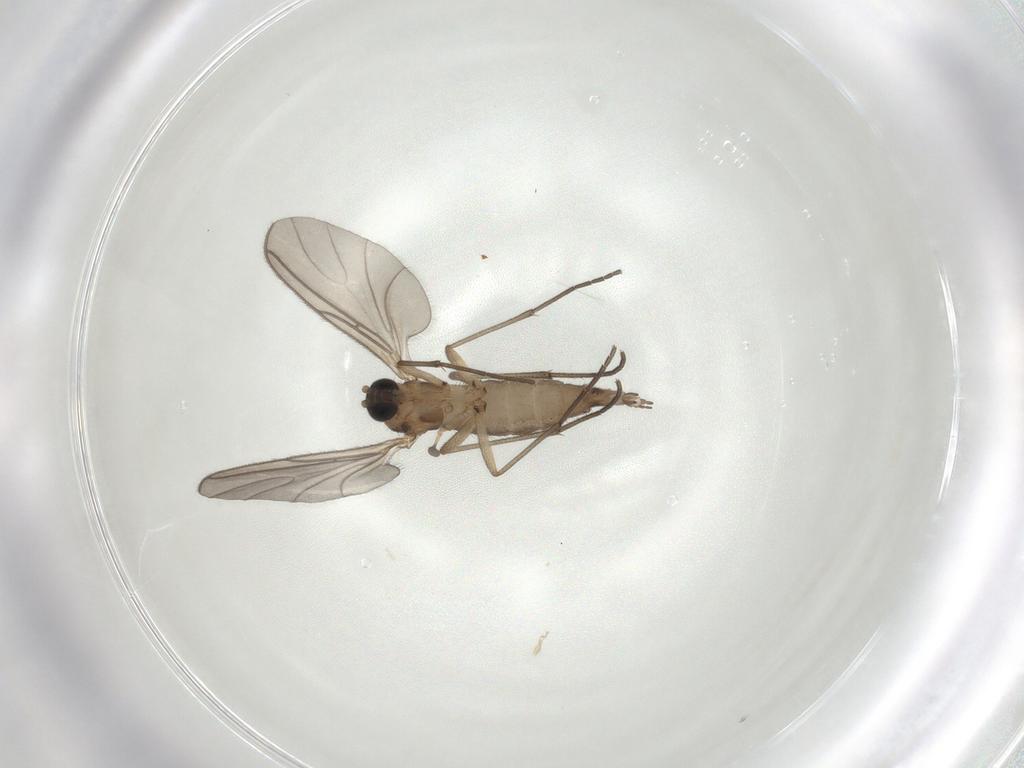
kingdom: Animalia
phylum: Arthropoda
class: Insecta
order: Diptera
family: Sciaridae
